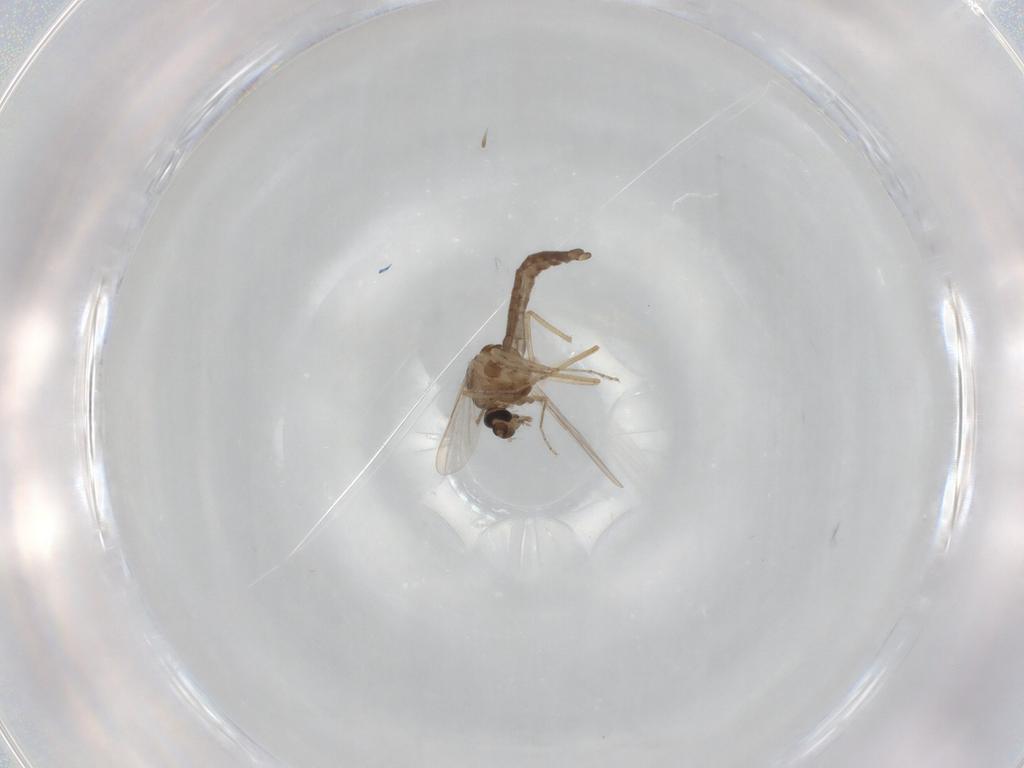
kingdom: Animalia
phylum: Arthropoda
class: Insecta
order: Diptera
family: Ceratopogonidae
